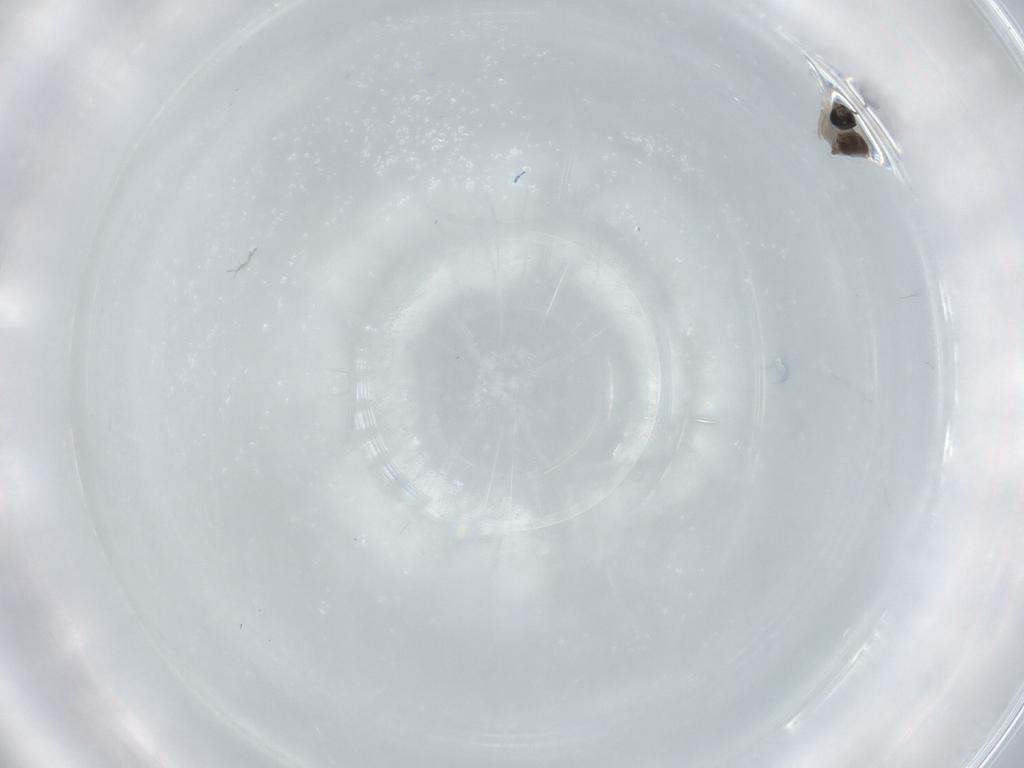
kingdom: Animalia
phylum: Arthropoda
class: Insecta
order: Diptera
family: Cecidomyiidae
